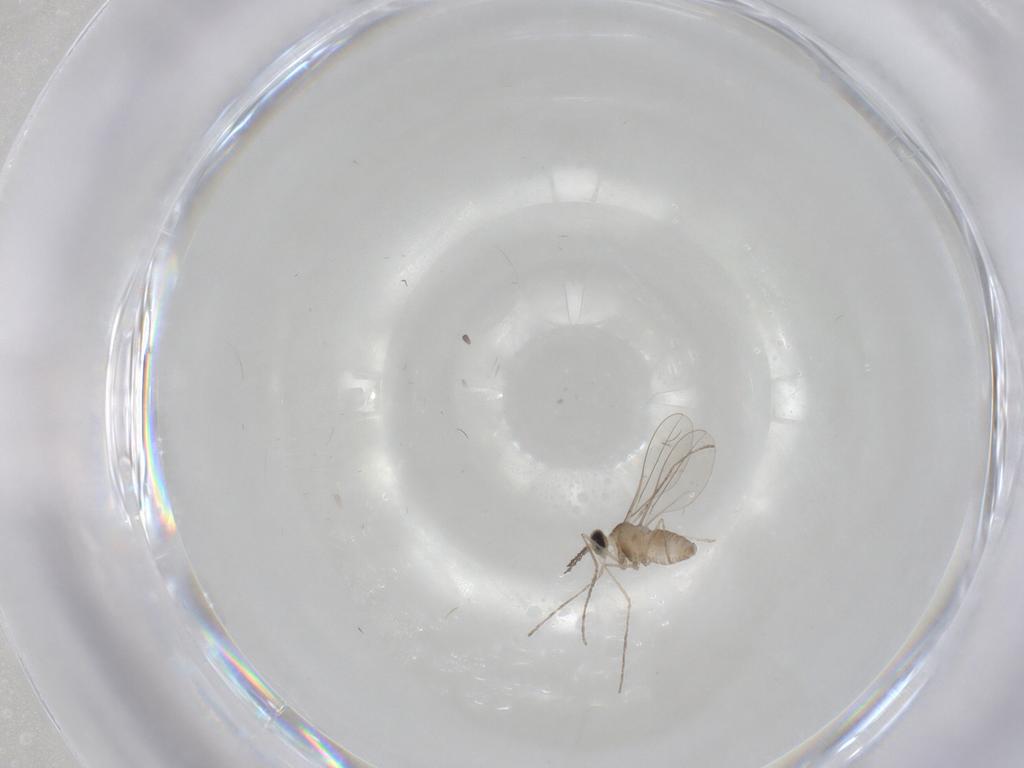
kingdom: Animalia
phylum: Arthropoda
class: Insecta
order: Diptera
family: Cecidomyiidae
